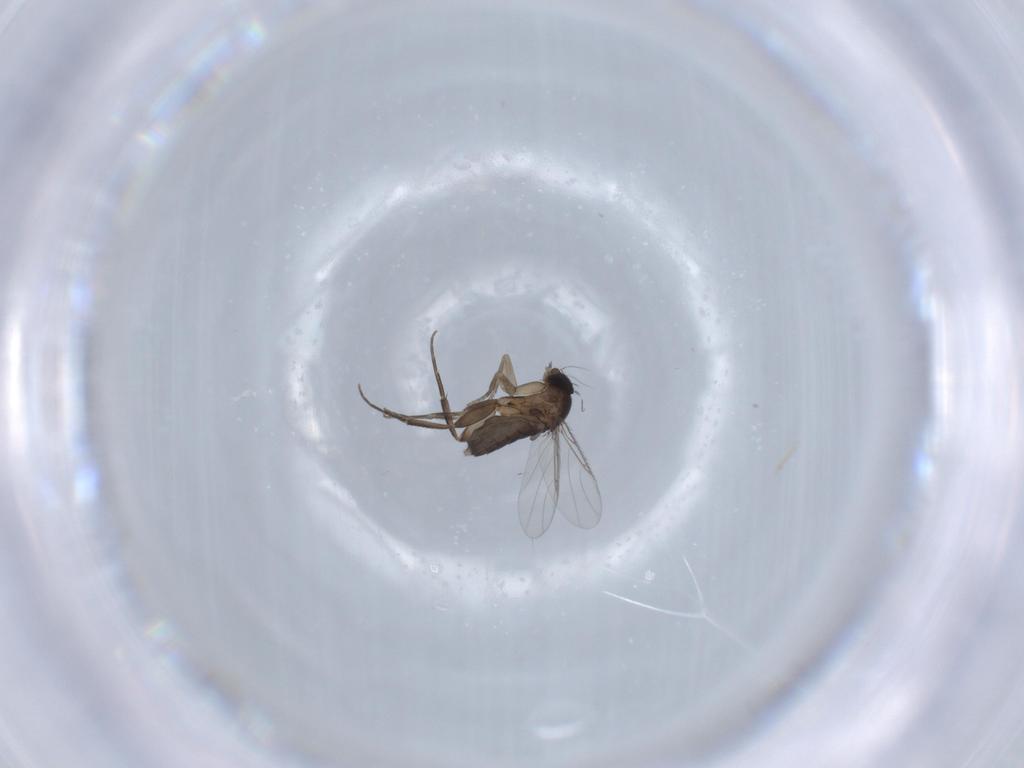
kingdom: Animalia
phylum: Arthropoda
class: Insecta
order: Diptera
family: Phoridae
